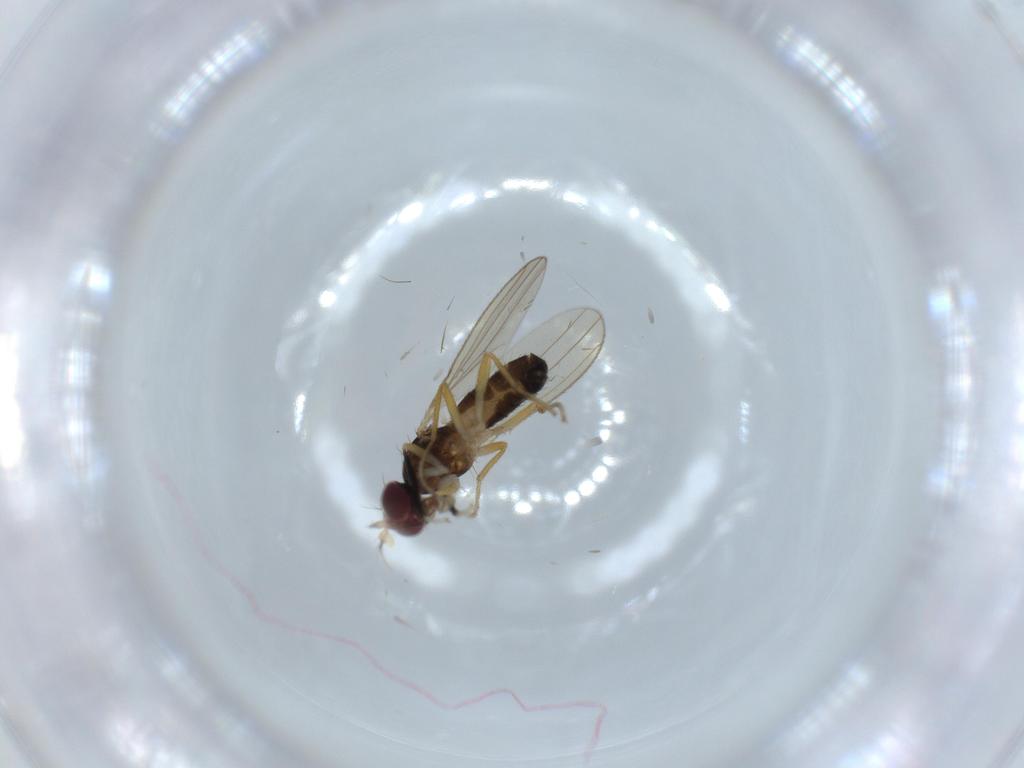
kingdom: Animalia
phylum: Arthropoda
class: Insecta
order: Diptera
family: Anthomyzidae
